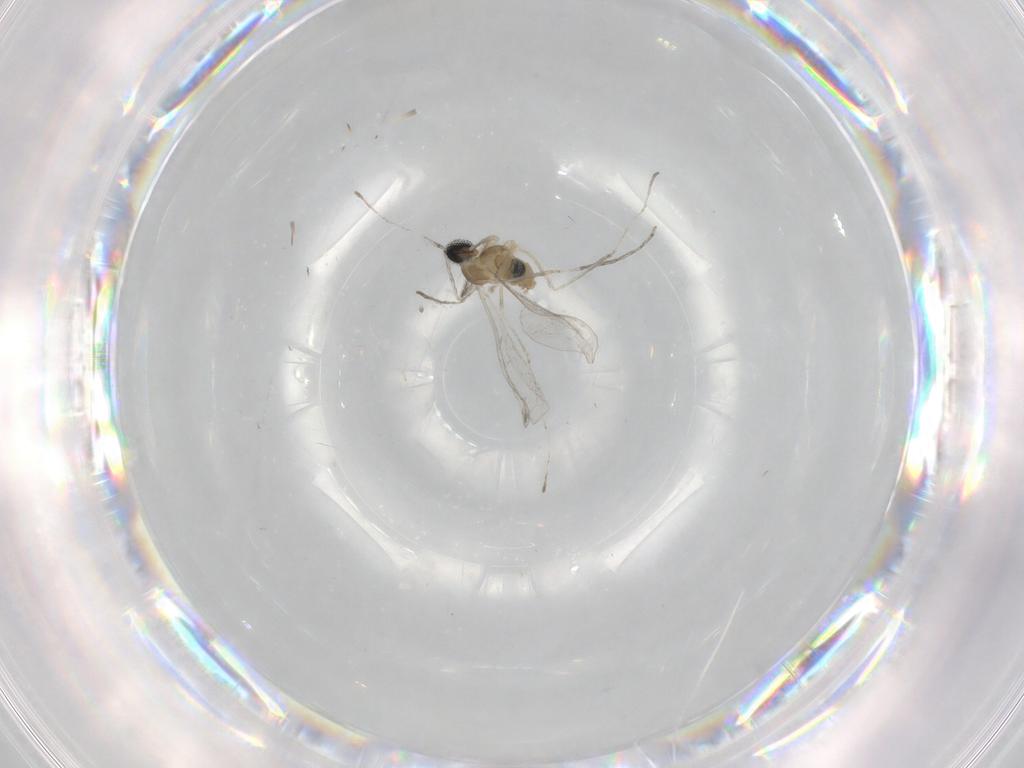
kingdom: Animalia
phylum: Arthropoda
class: Insecta
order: Diptera
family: Cecidomyiidae
